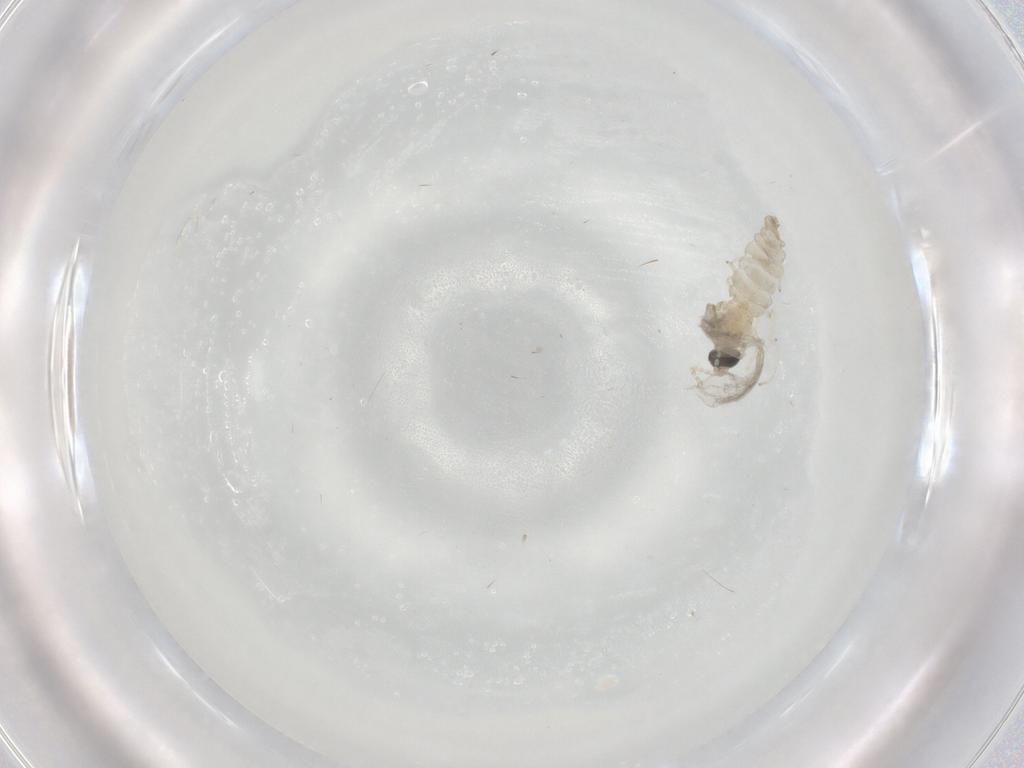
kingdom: Animalia
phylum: Arthropoda
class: Insecta
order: Diptera
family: Cecidomyiidae
